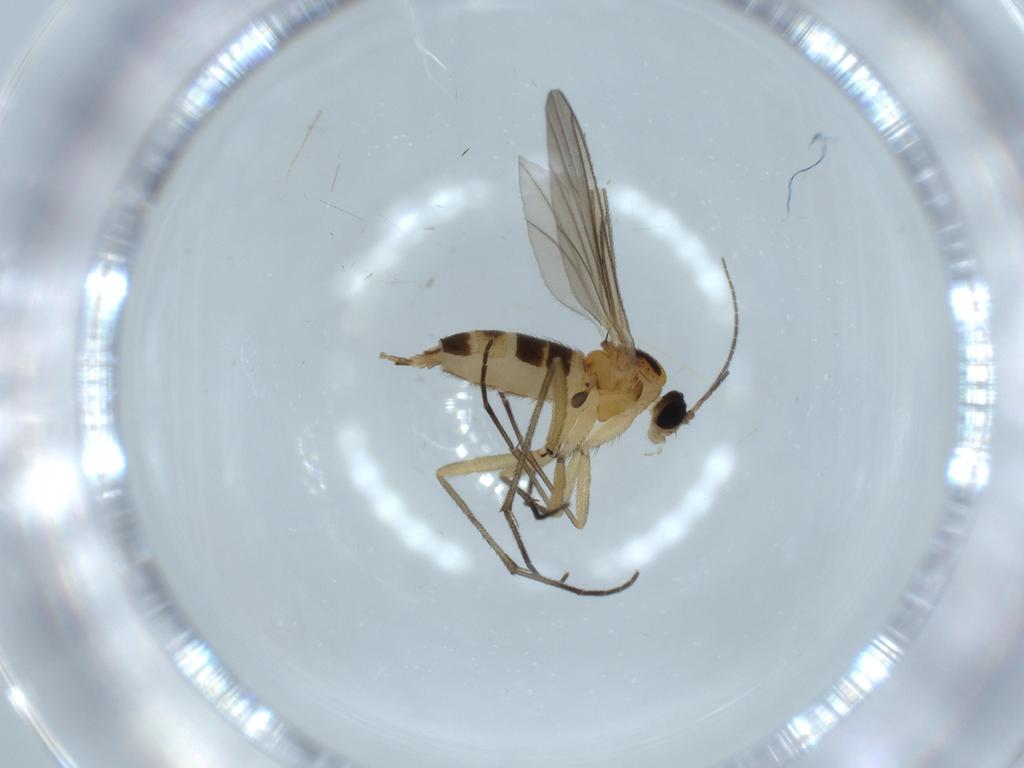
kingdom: Animalia
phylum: Arthropoda
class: Insecta
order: Diptera
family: Sciaridae
